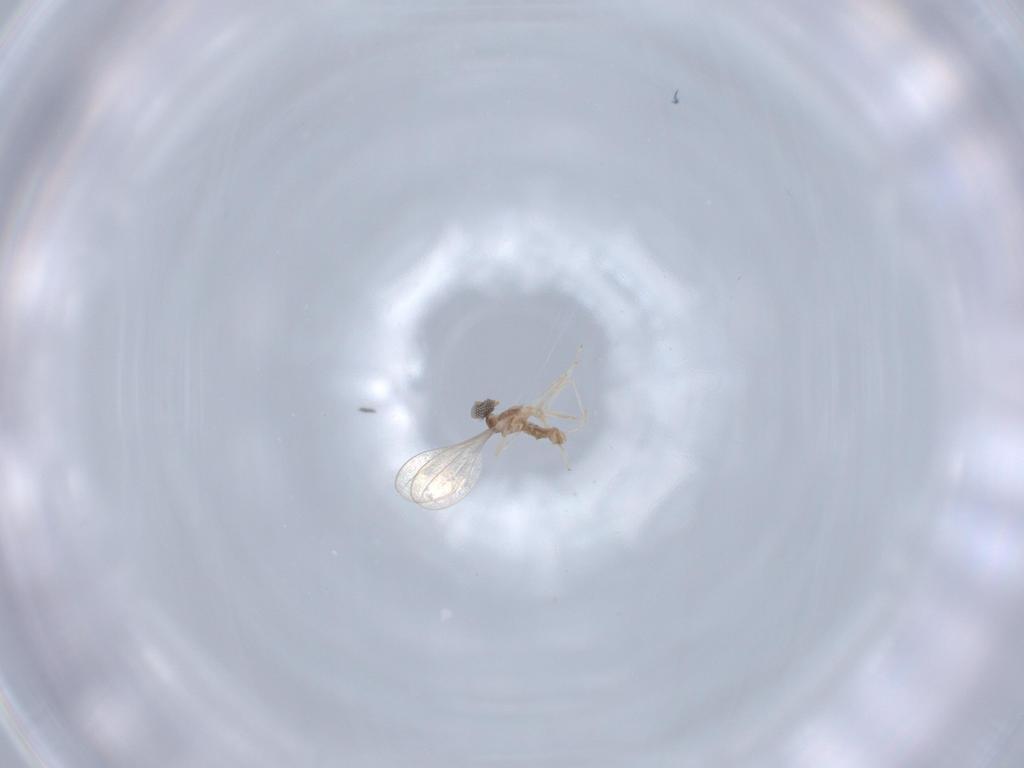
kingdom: Animalia
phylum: Arthropoda
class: Insecta
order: Diptera
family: Cecidomyiidae
